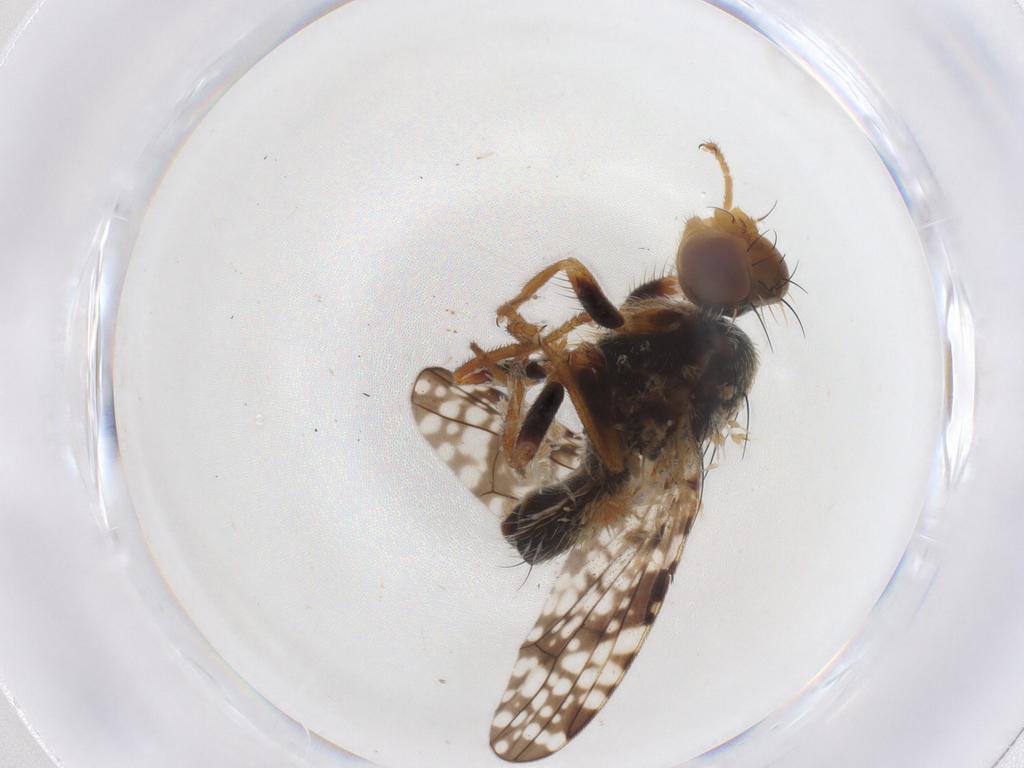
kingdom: Animalia
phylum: Arthropoda
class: Insecta
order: Diptera
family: Tephritidae
